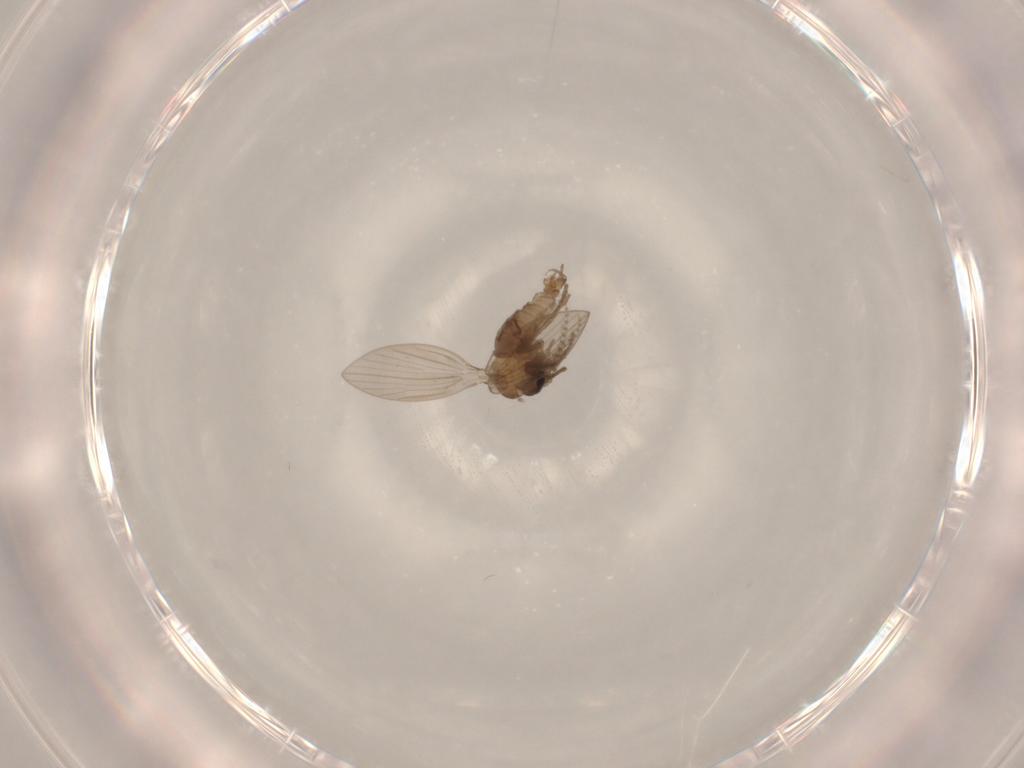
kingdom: Animalia
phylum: Arthropoda
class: Insecta
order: Diptera
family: Psychodidae
